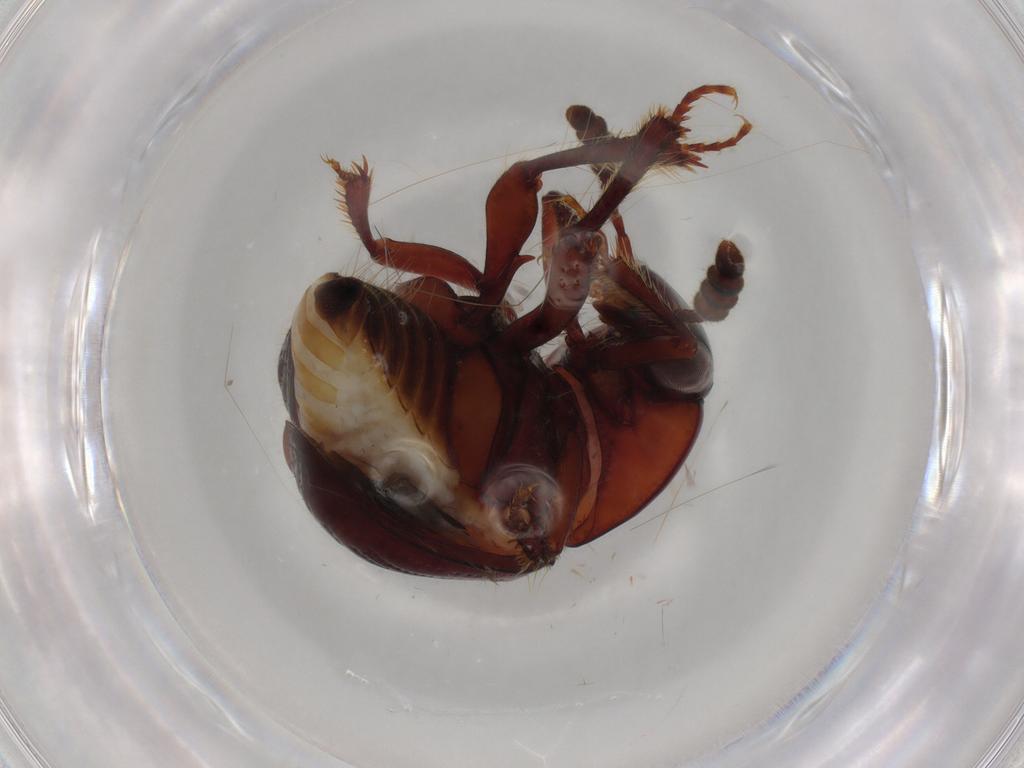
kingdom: Animalia
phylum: Arthropoda
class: Insecta
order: Coleoptera
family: Leiodidae
